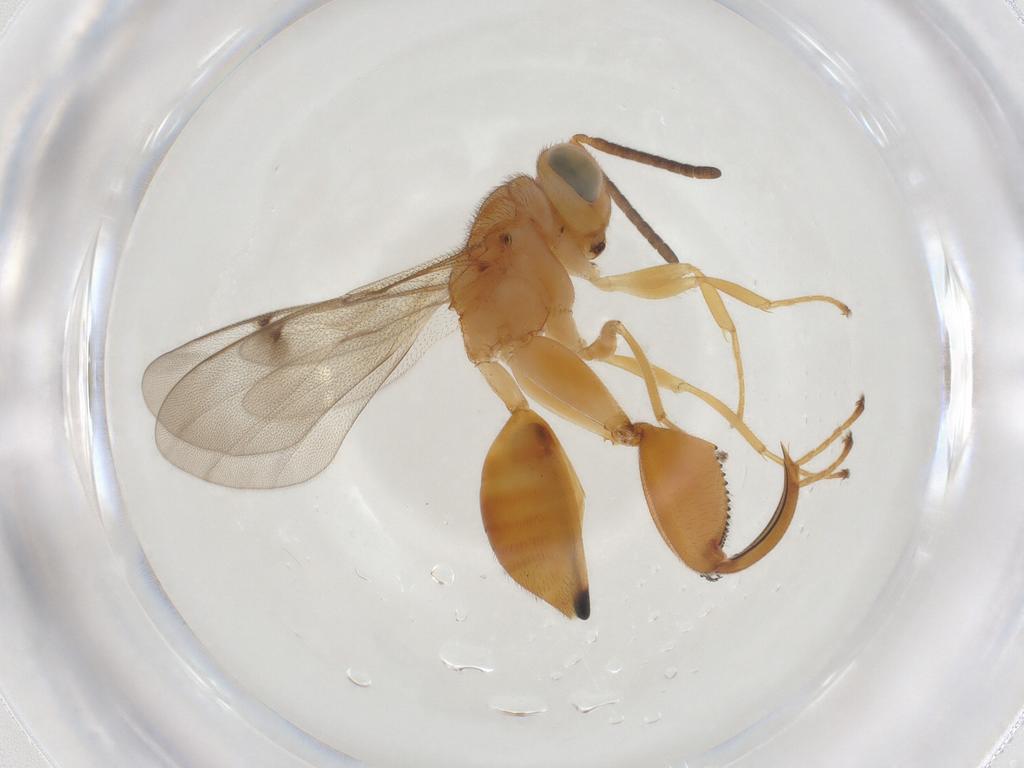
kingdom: Animalia
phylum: Arthropoda
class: Insecta
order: Hymenoptera
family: Chalcididae
